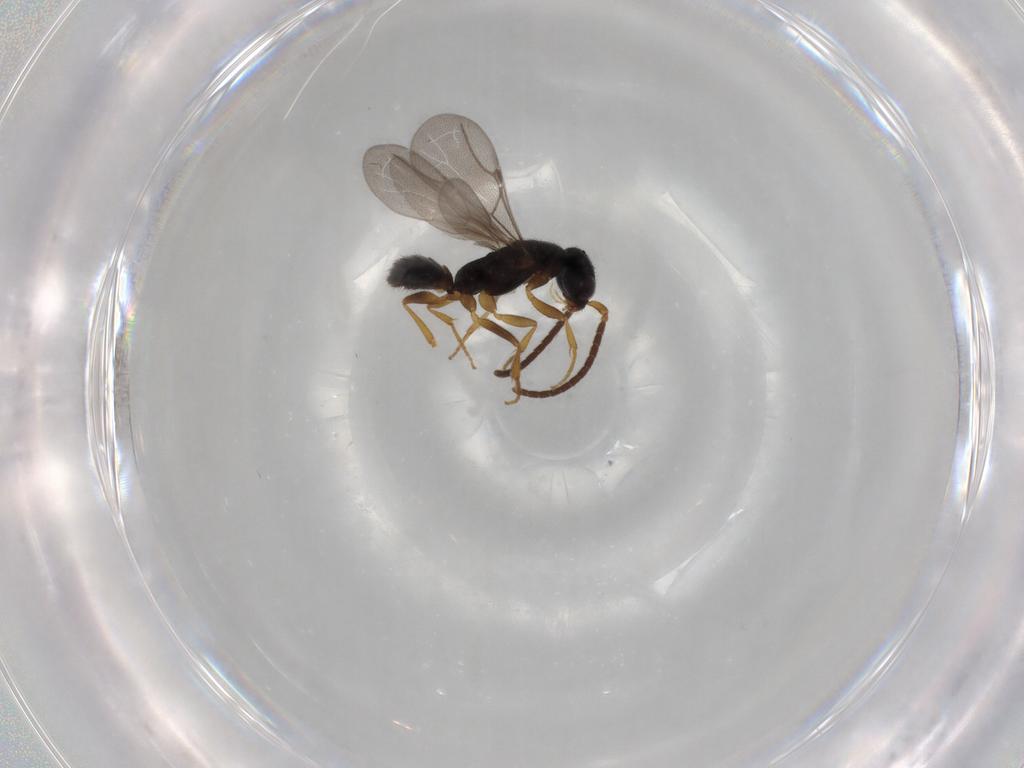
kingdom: Animalia
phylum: Arthropoda
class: Insecta
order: Hymenoptera
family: Bethylidae
